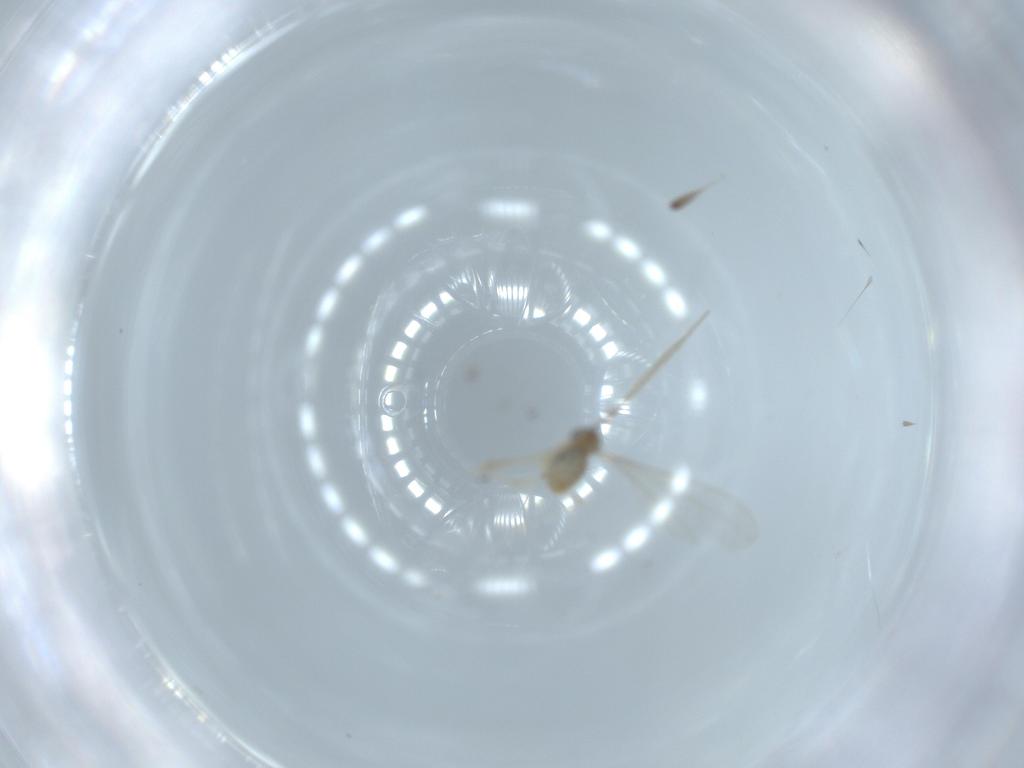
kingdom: Animalia
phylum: Arthropoda
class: Insecta
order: Diptera
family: Cecidomyiidae
